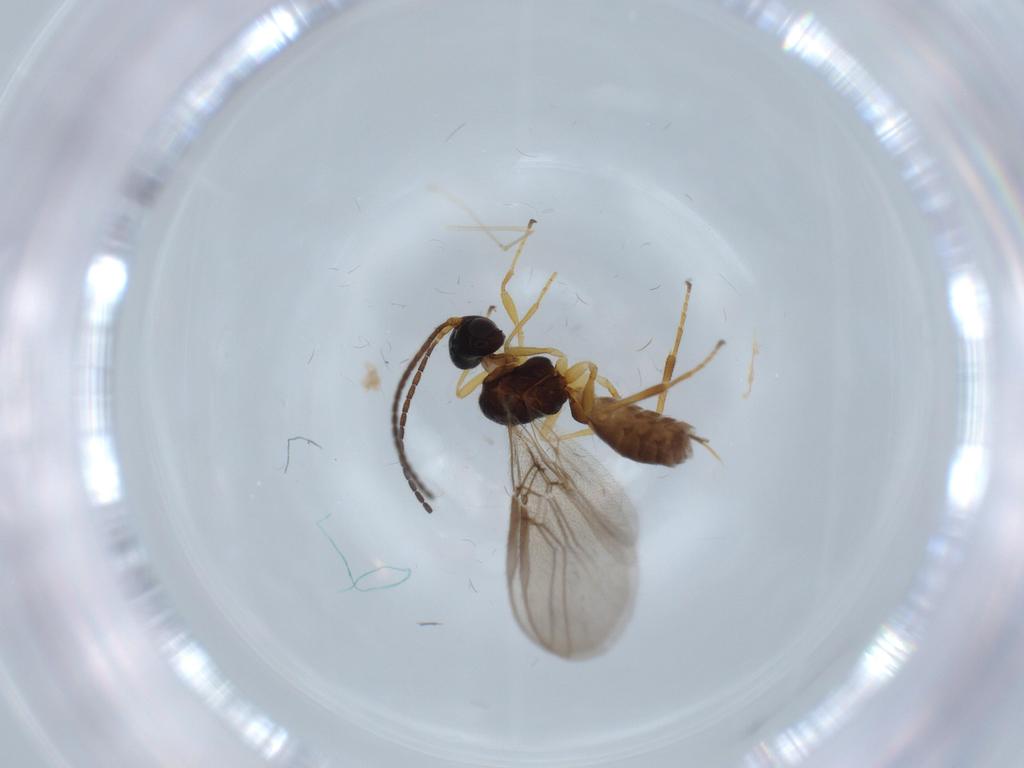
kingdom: Animalia
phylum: Arthropoda
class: Insecta
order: Hymenoptera
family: Braconidae
